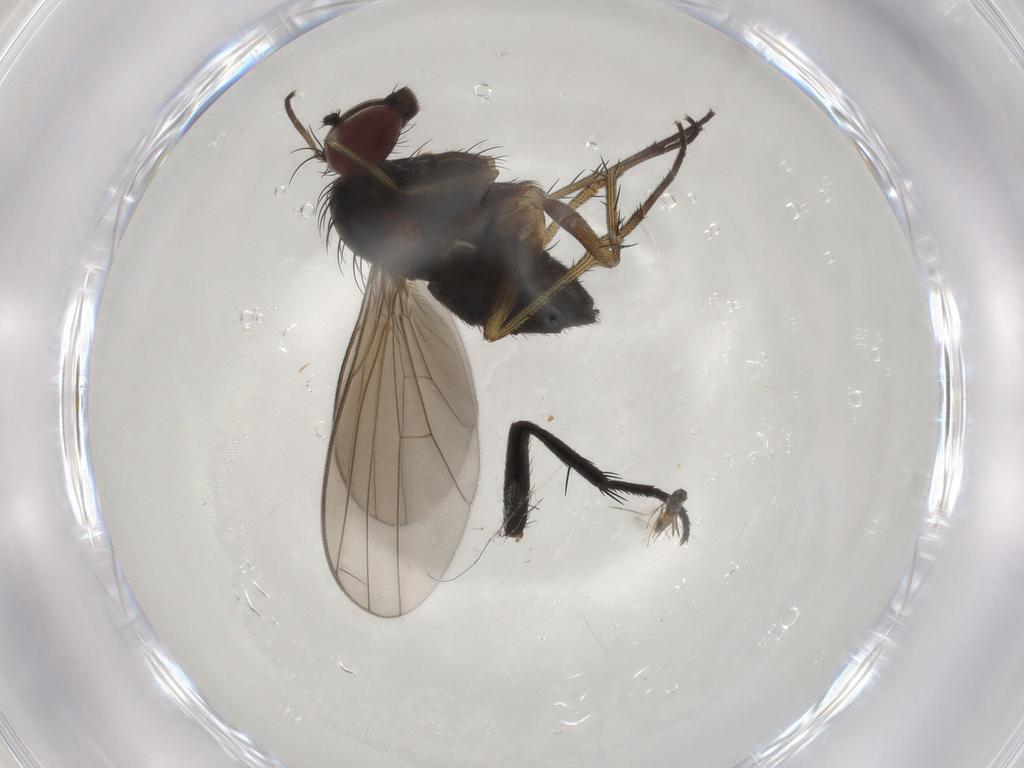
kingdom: Animalia
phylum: Arthropoda
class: Insecta
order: Diptera
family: Dolichopodidae
